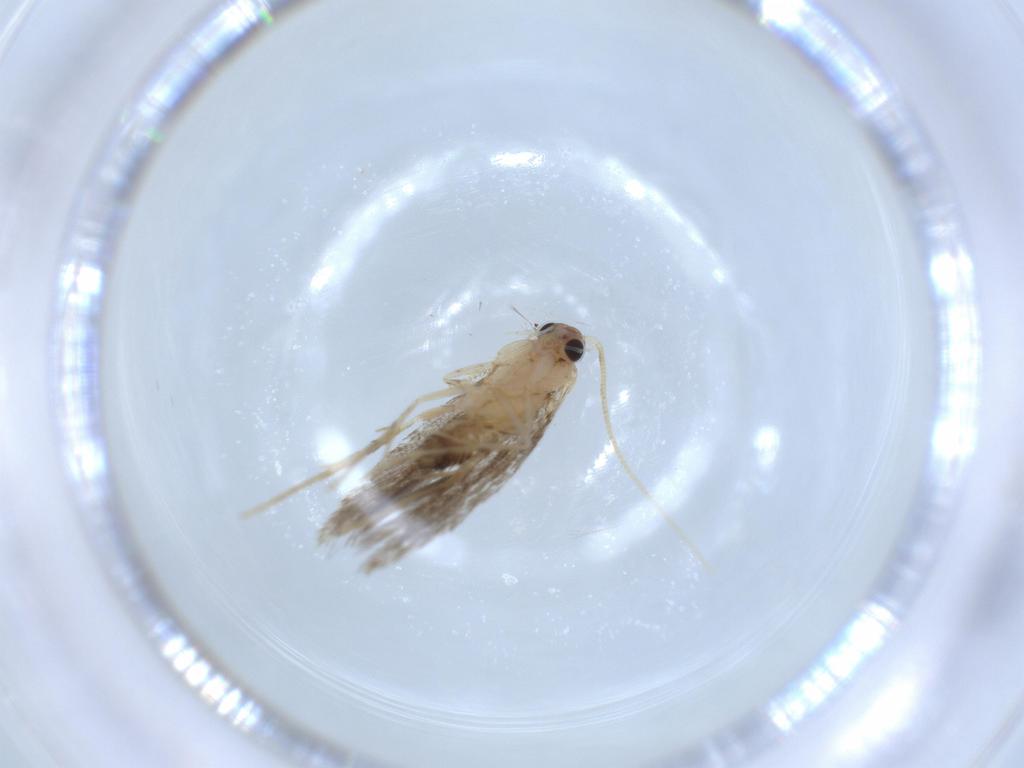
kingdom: Animalia
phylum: Arthropoda
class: Insecta
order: Lepidoptera
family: Tineidae
